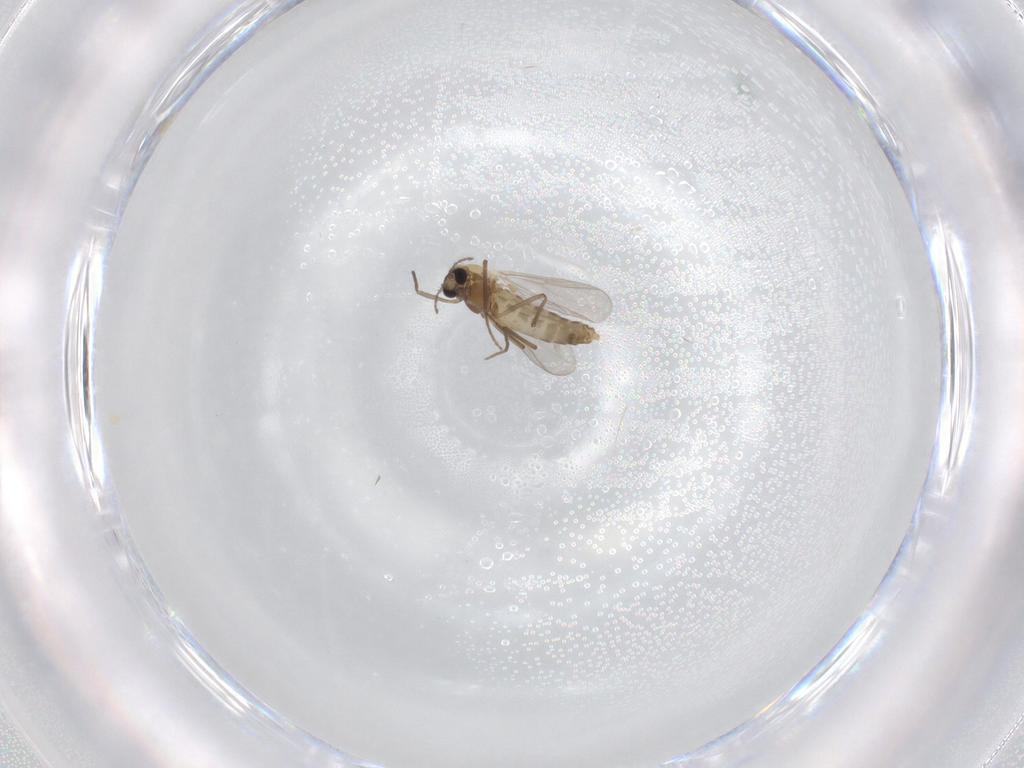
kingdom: Animalia
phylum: Arthropoda
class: Insecta
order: Diptera
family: Chironomidae
